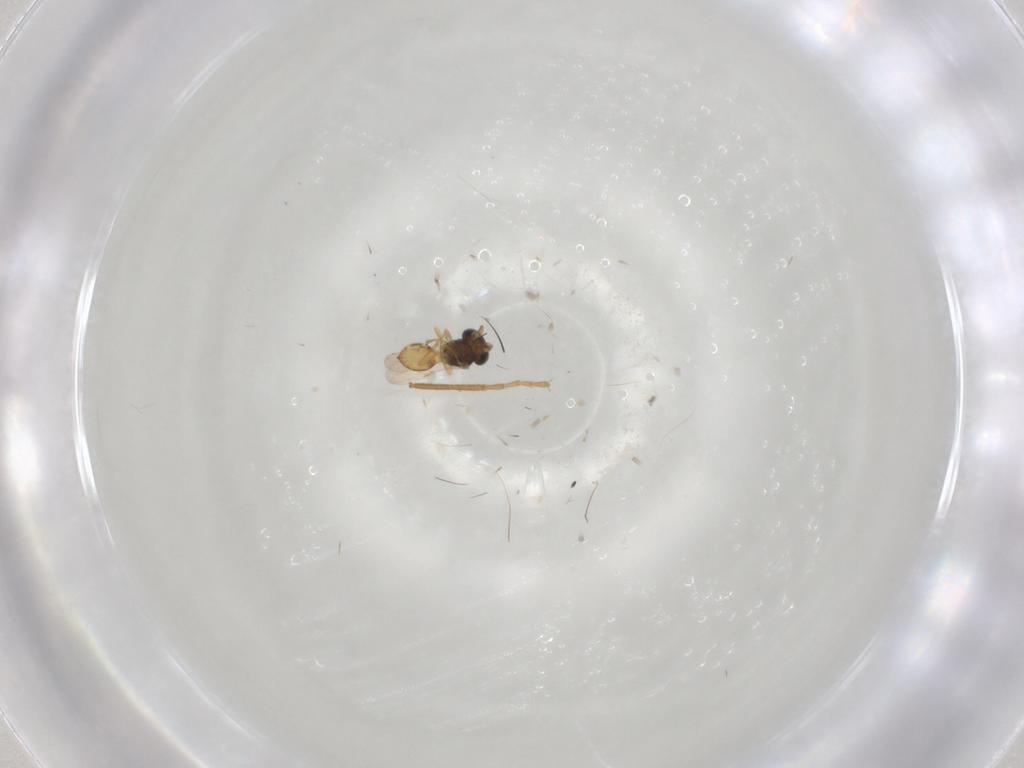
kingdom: Animalia
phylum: Arthropoda
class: Insecta
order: Hymenoptera
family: Formicidae
